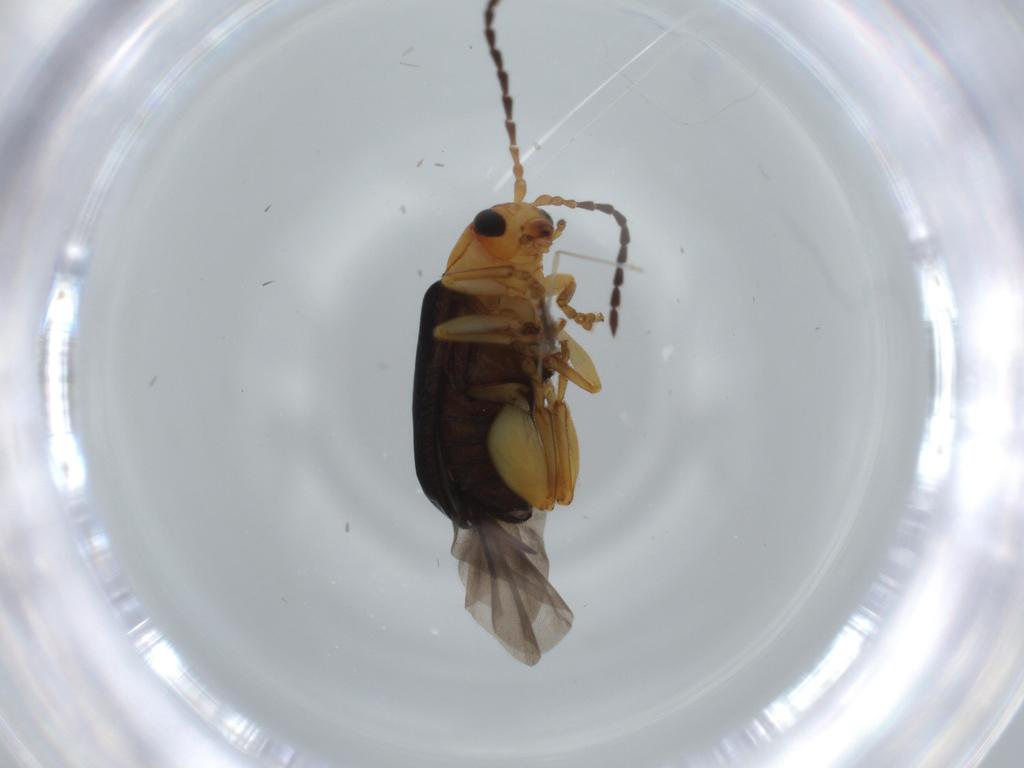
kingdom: Animalia
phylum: Arthropoda
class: Insecta
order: Coleoptera
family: Chrysomelidae
